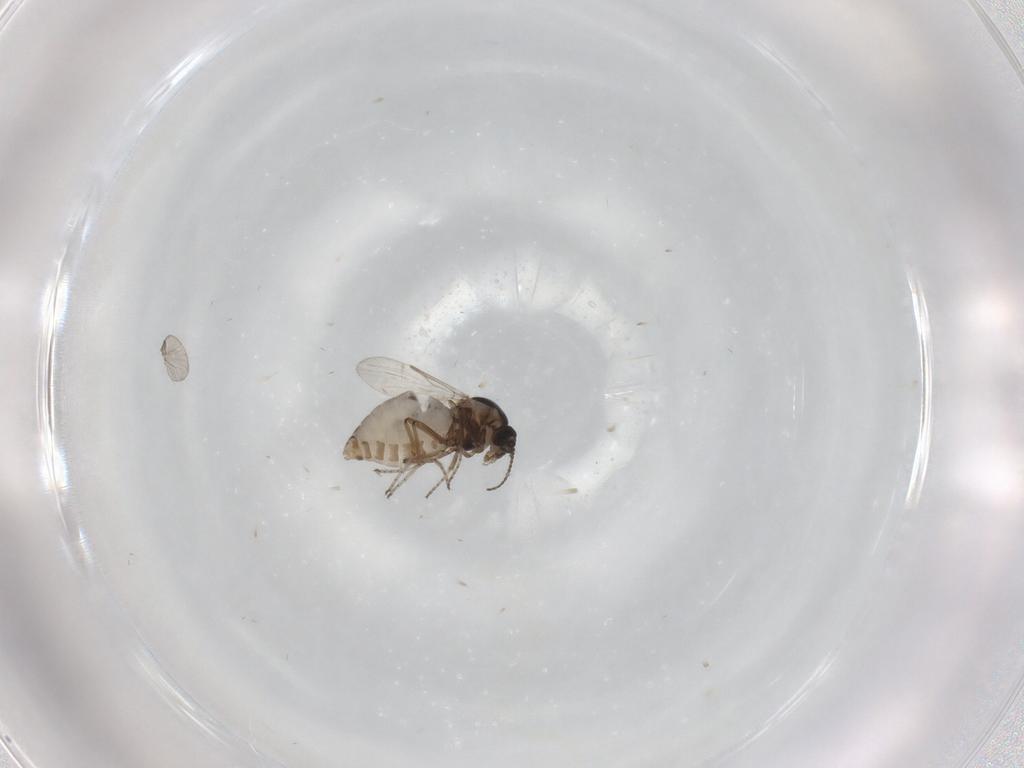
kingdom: Animalia
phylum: Arthropoda
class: Insecta
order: Diptera
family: Ceratopogonidae
